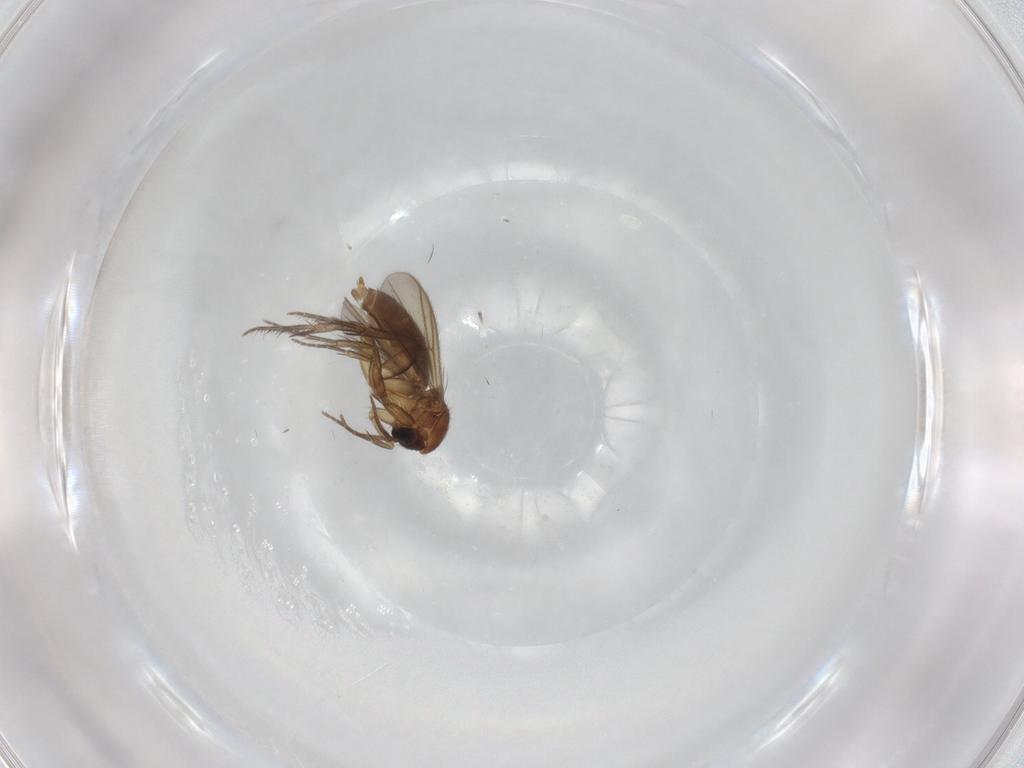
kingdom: Animalia
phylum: Arthropoda
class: Insecta
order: Diptera
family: Mycetophilidae
